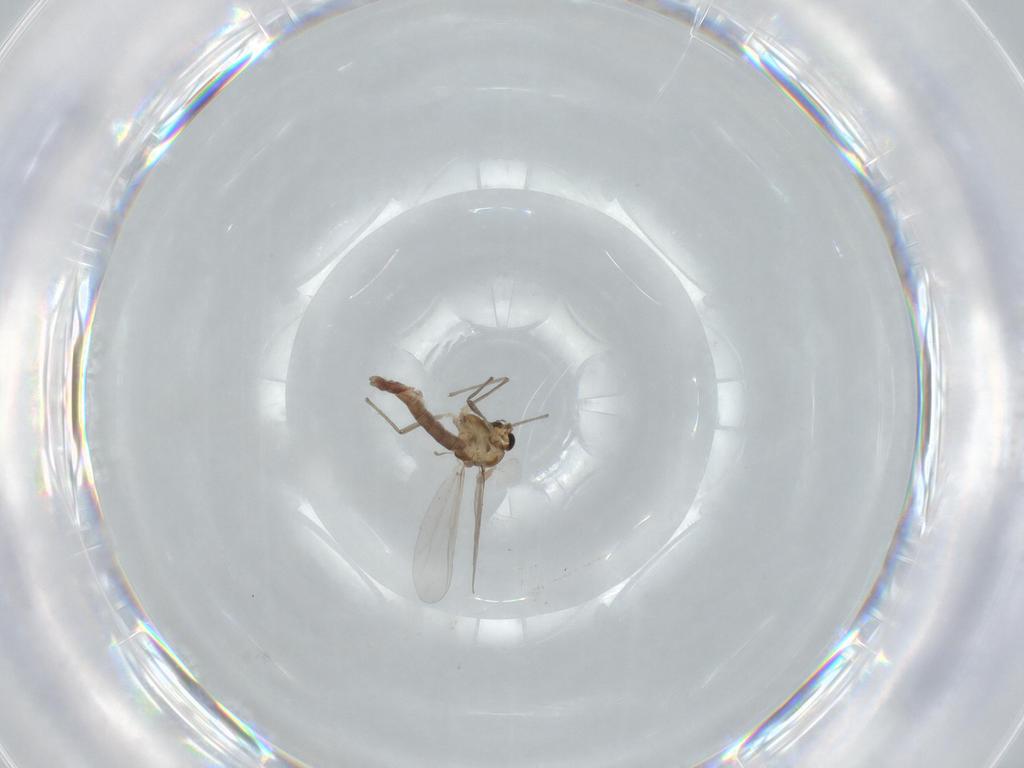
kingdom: Animalia
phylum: Arthropoda
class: Insecta
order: Diptera
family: Chironomidae
